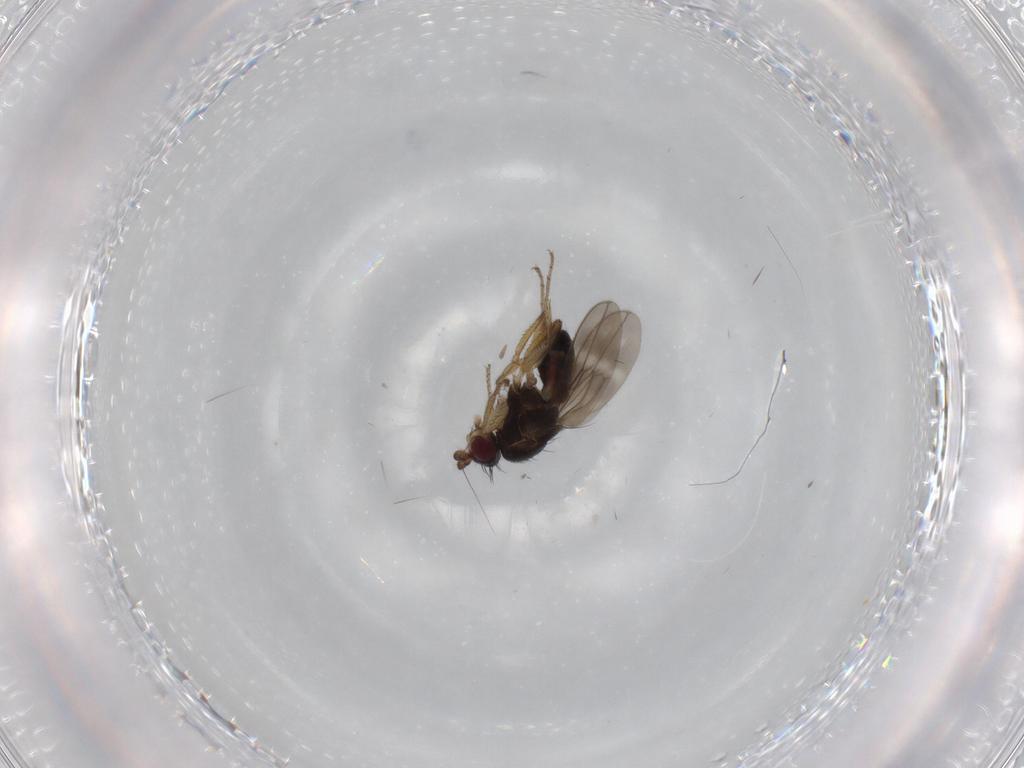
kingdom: Animalia
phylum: Arthropoda
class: Insecta
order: Diptera
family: Sphaeroceridae
